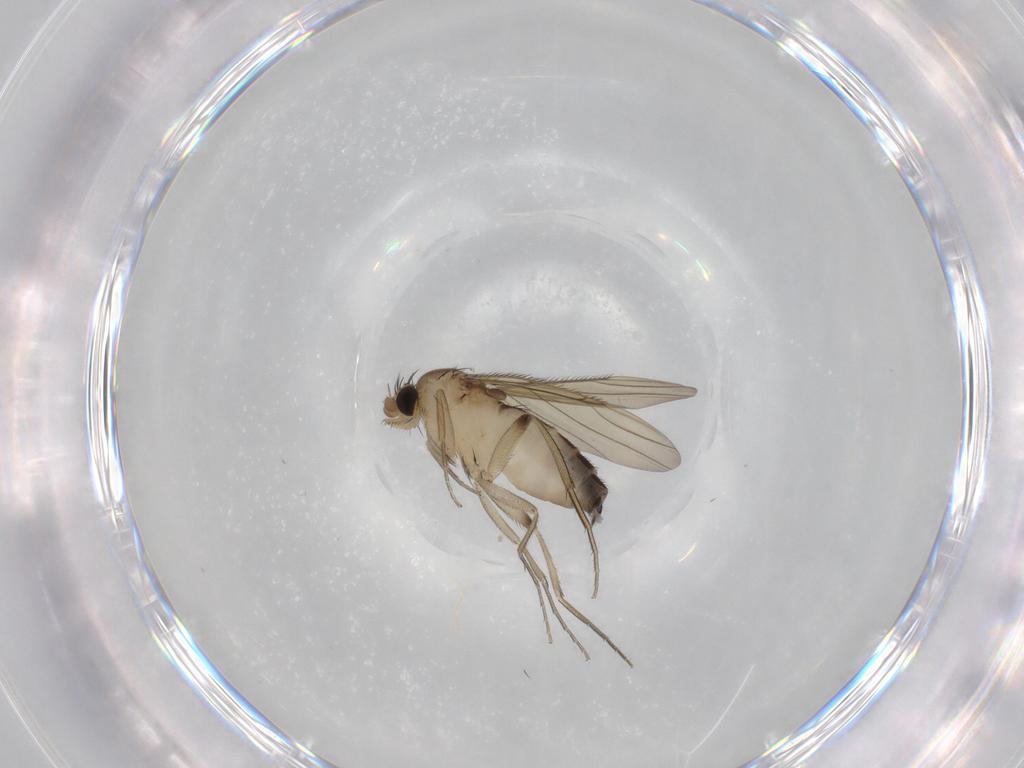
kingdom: Animalia
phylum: Arthropoda
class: Insecta
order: Diptera
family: Phoridae
